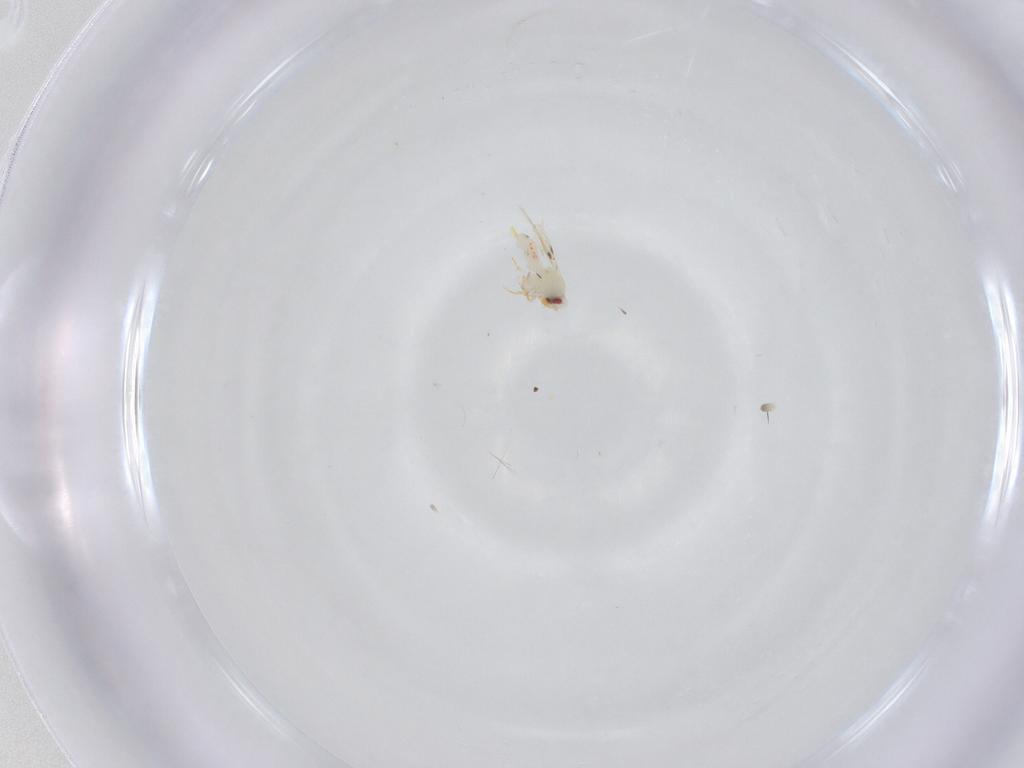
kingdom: Animalia
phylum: Arthropoda
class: Insecta
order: Hemiptera
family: Aleyrodidae
